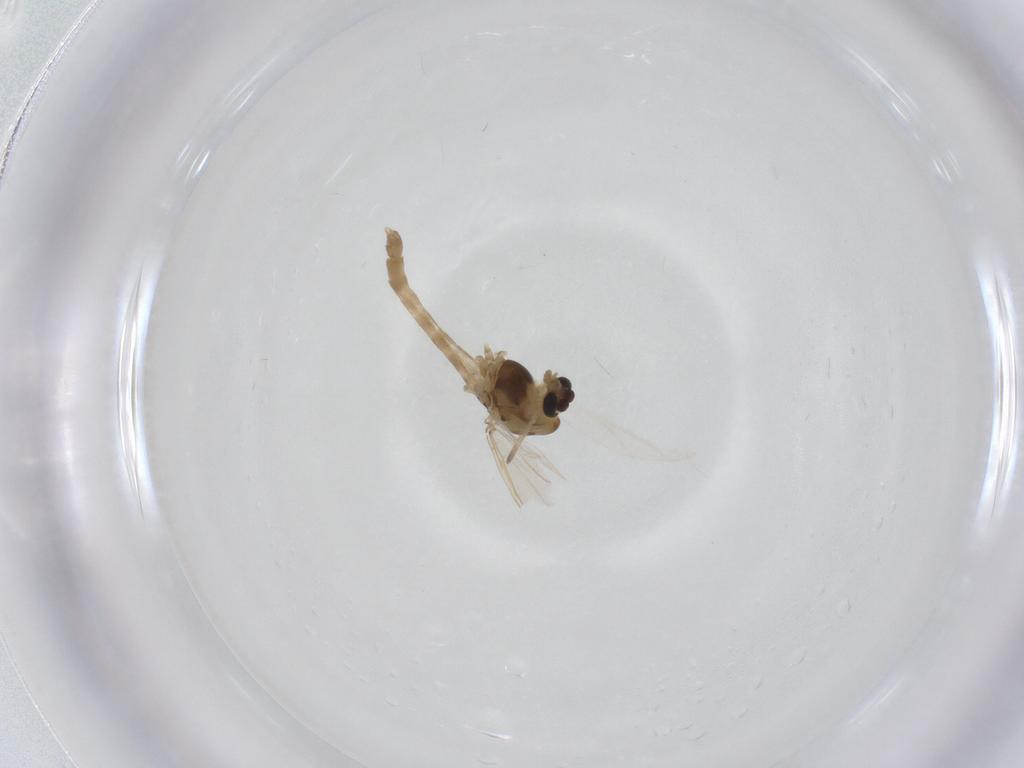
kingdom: Animalia
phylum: Arthropoda
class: Insecta
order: Diptera
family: Chironomidae
